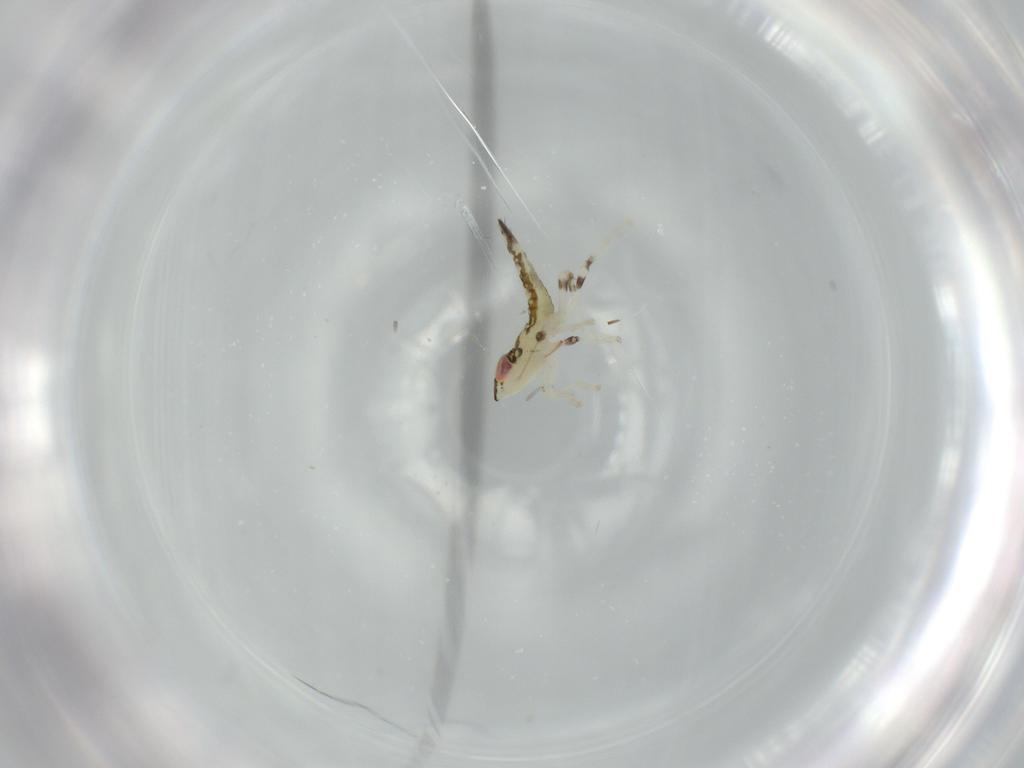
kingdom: Animalia
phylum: Arthropoda
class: Insecta
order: Hemiptera
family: Cicadellidae
